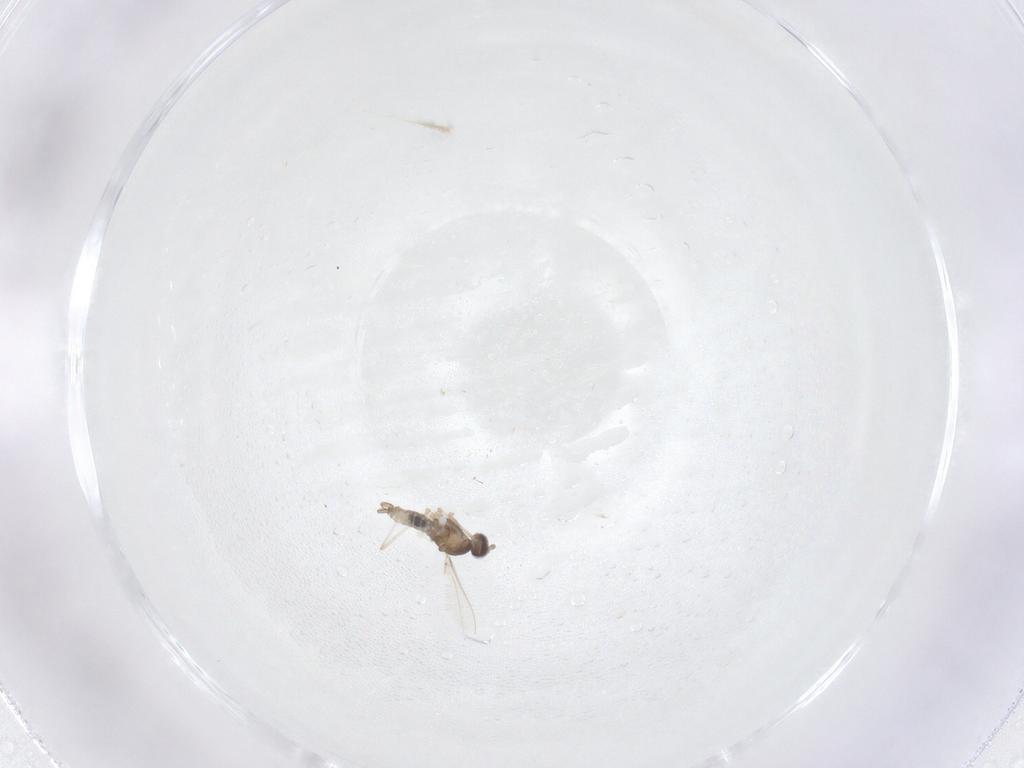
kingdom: Animalia
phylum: Arthropoda
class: Insecta
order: Diptera
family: Cecidomyiidae
